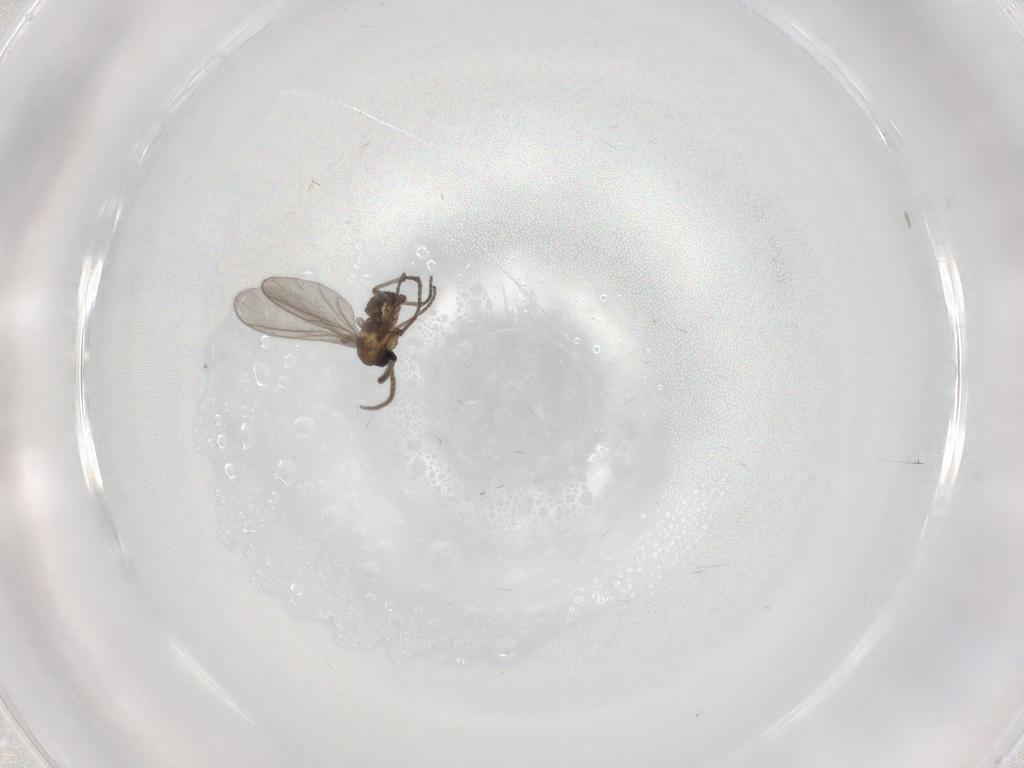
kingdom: Animalia
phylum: Arthropoda
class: Insecta
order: Diptera
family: Sciaridae
